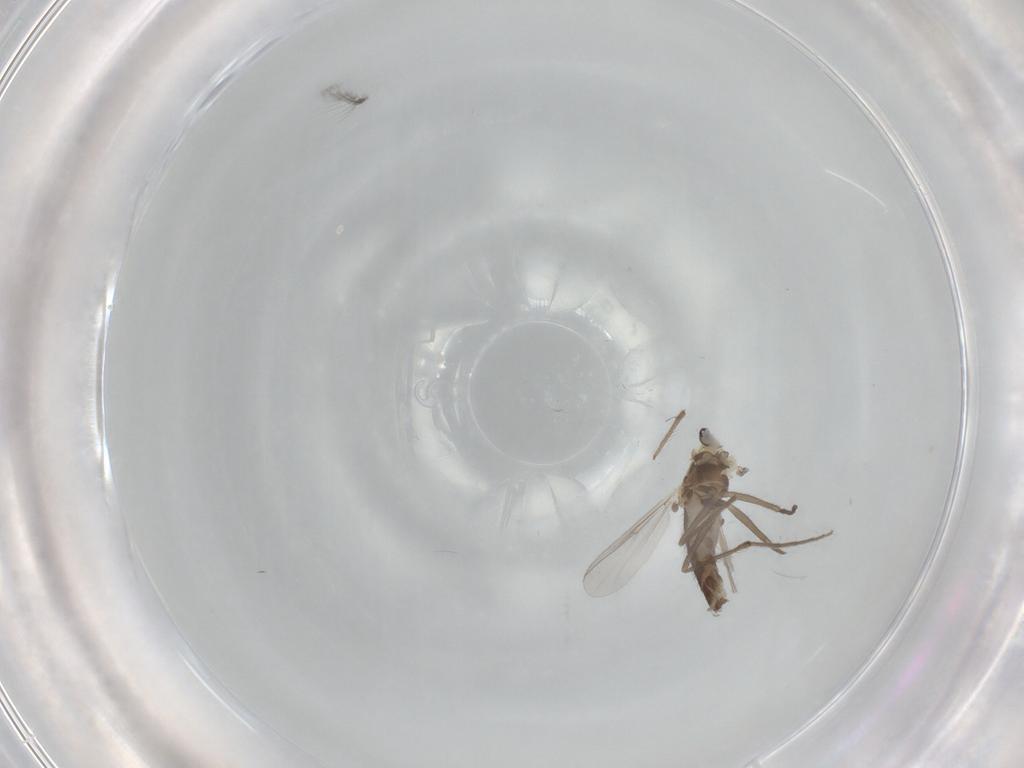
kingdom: Animalia
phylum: Arthropoda
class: Insecta
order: Diptera
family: Chironomidae
